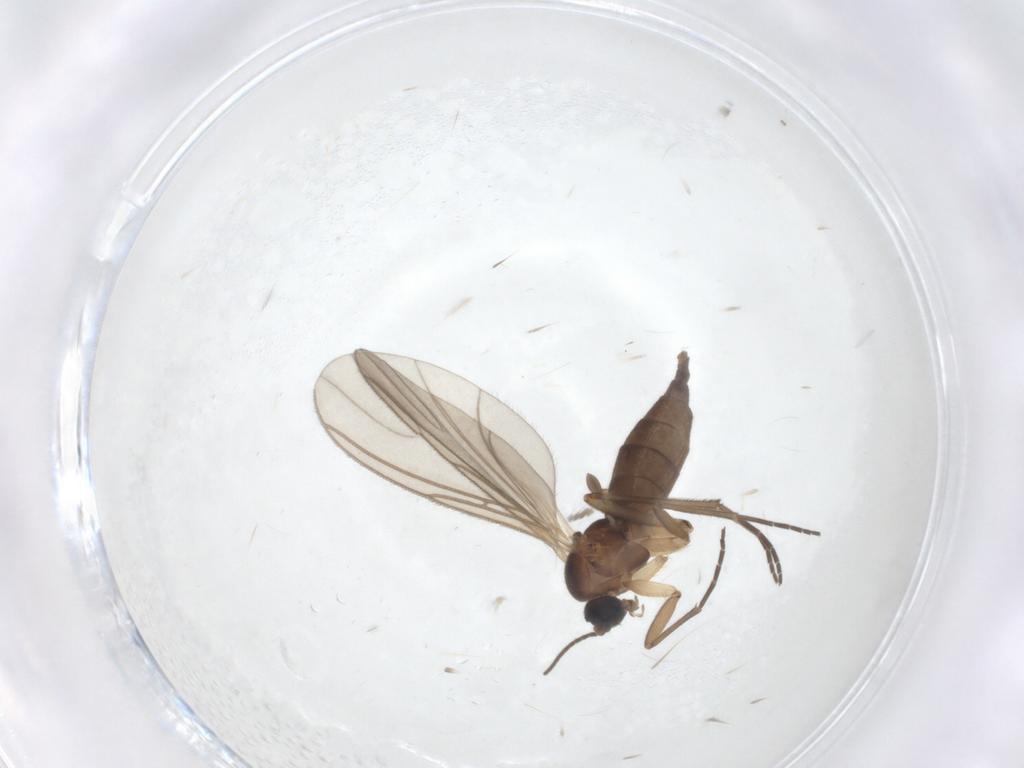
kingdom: Animalia
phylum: Arthropoda
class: Insecta
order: Diptera
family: Sciaridae
